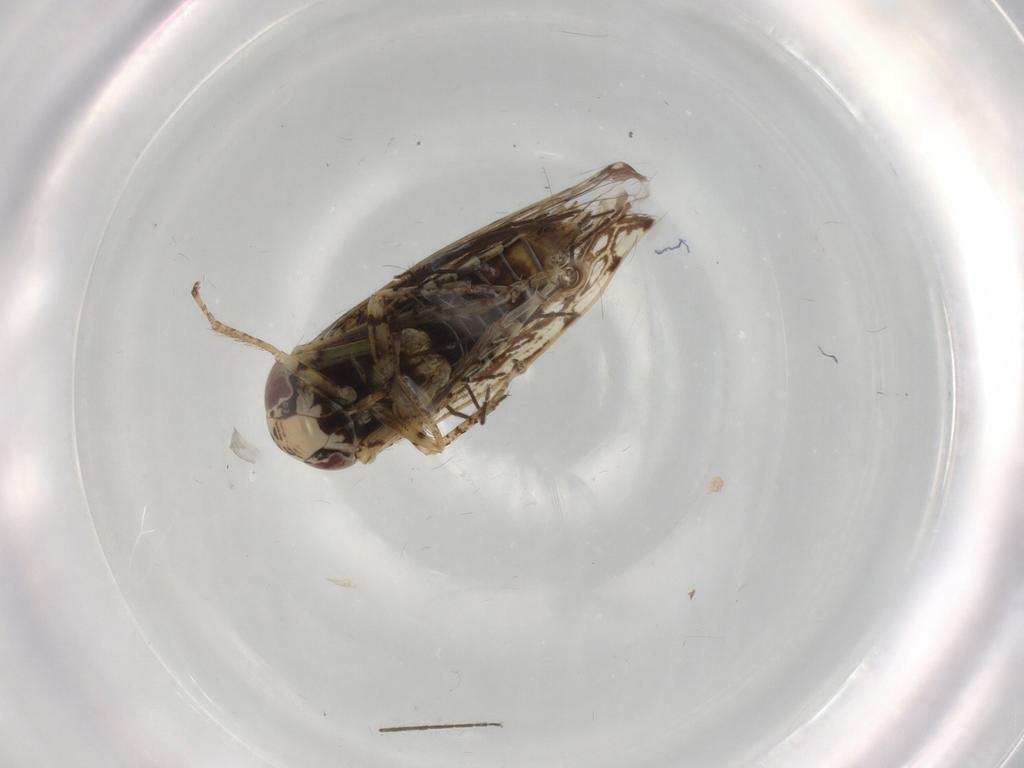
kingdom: Animalia
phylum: Arthropoda
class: Insecta
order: Hemiptera
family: Cicadellidae
